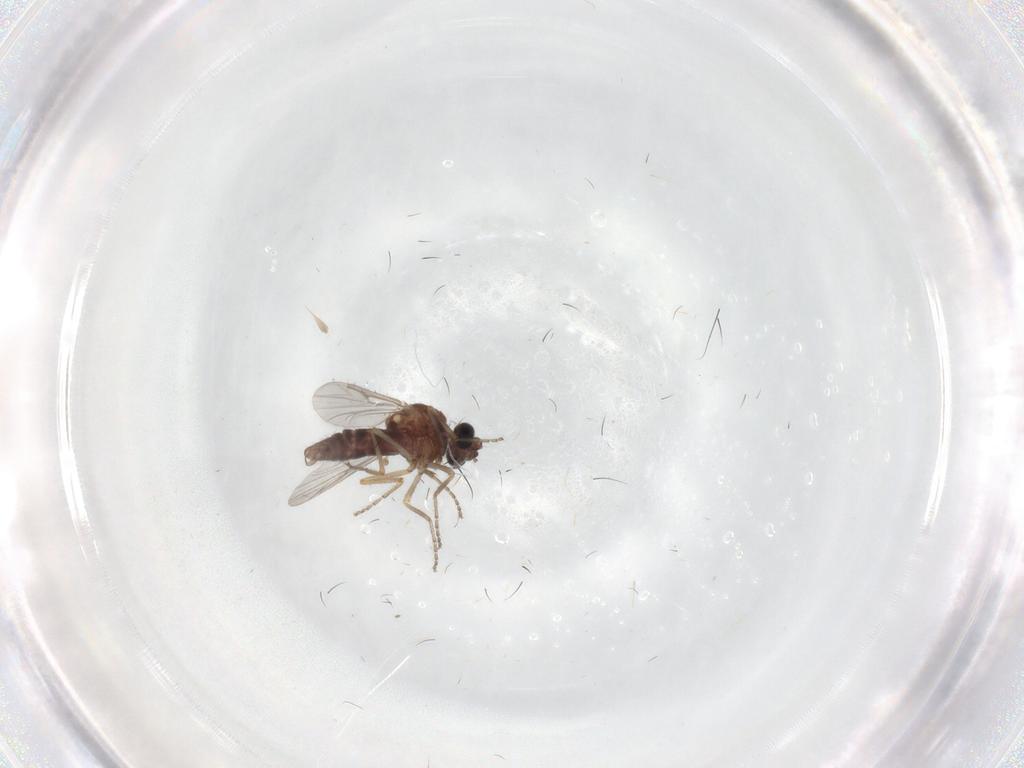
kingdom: Animalia
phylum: Arthropoda
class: Insecta
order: Diptera
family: Ceratopogonidae
